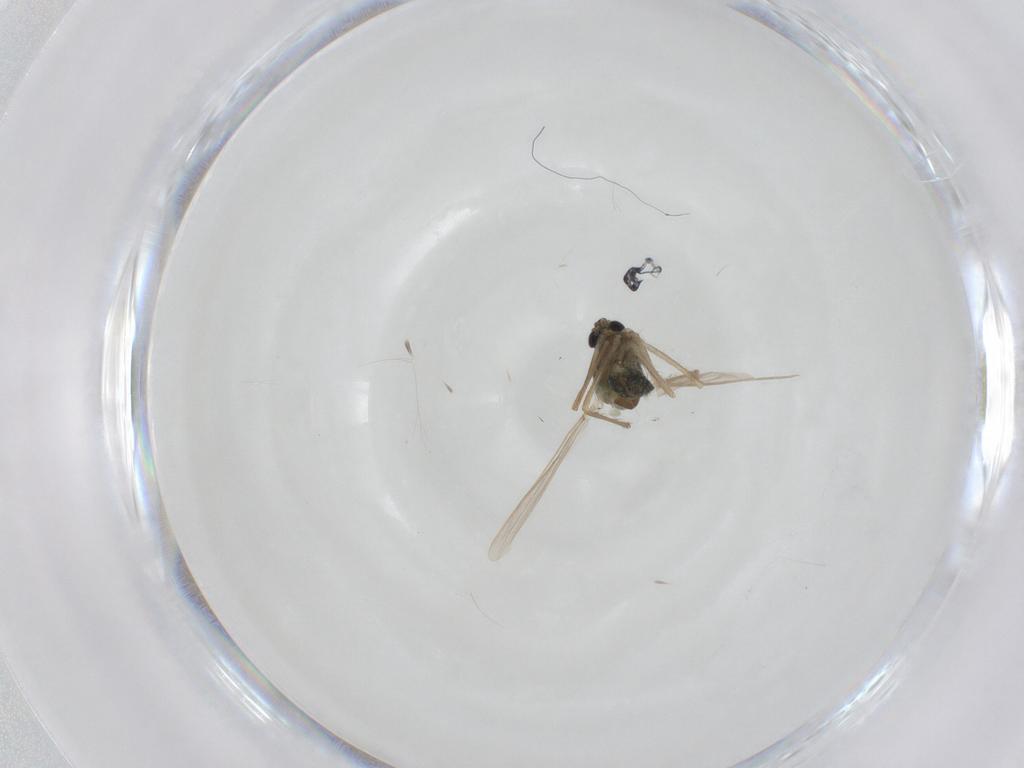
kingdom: Animalia
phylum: Arthropoda
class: Insecta
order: Diptera
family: Chironomidae
